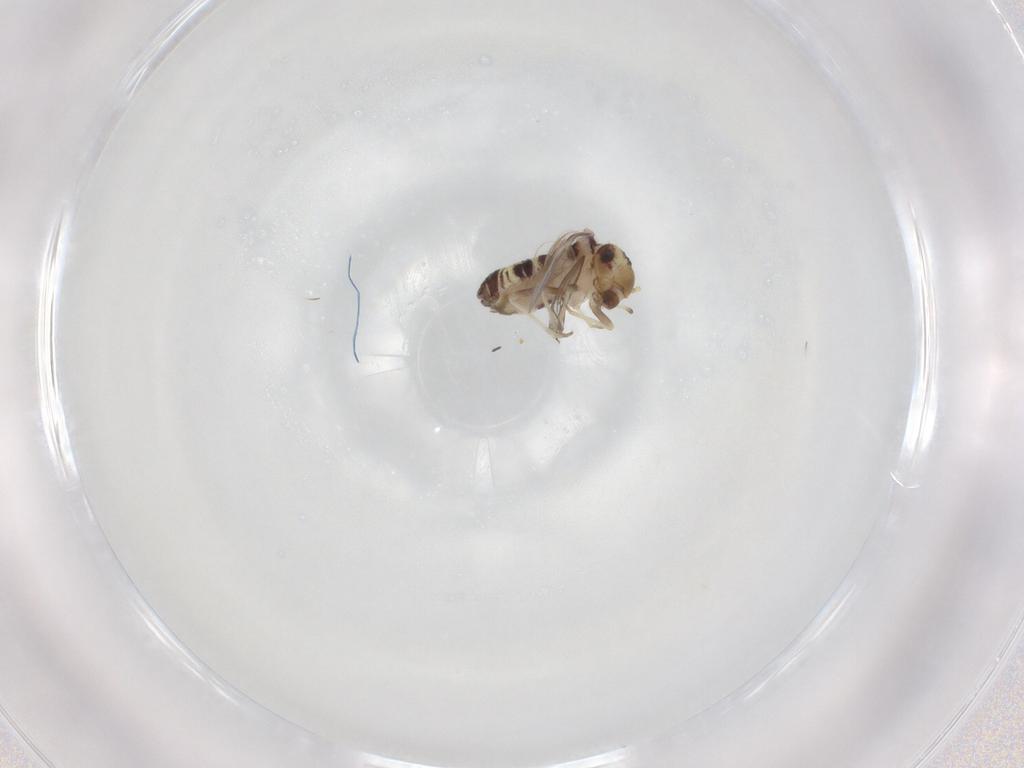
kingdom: Animalia
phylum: Arthropoda
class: Insecta
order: Psocodea
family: Ectopsocidae
